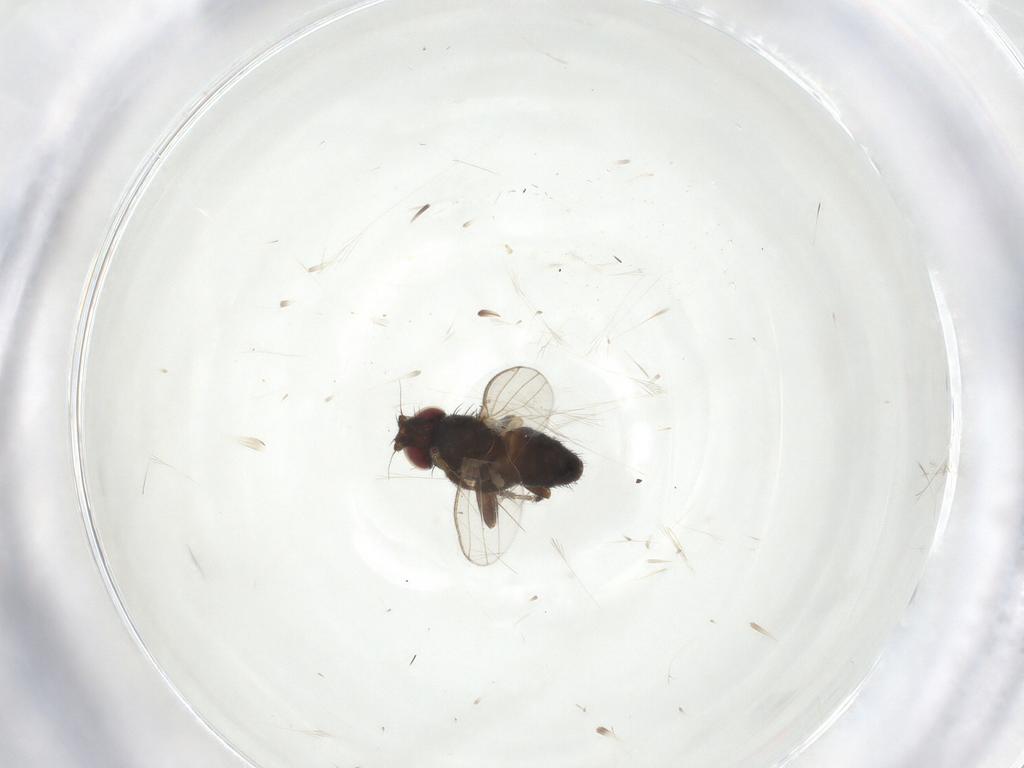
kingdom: Animalia
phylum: Arthropoda
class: Insecta
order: Diptera
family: Milichiidae
